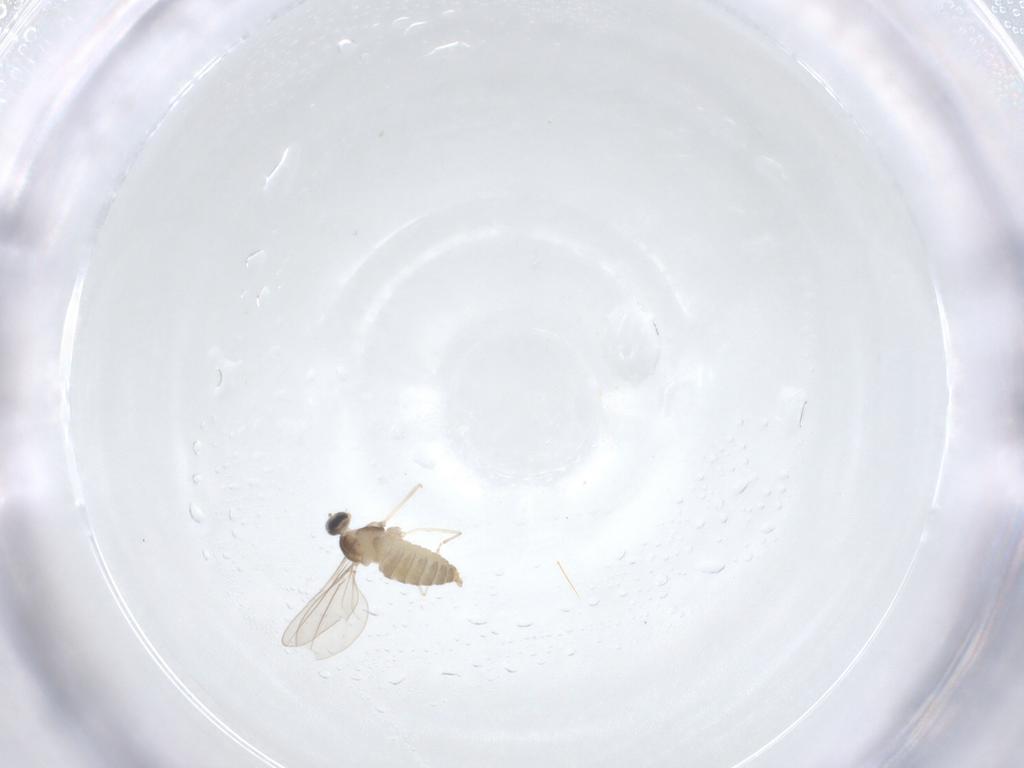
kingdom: Animalia
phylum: Arthropoda
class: Insecta
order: Diptera
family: Cecidomyiidae
